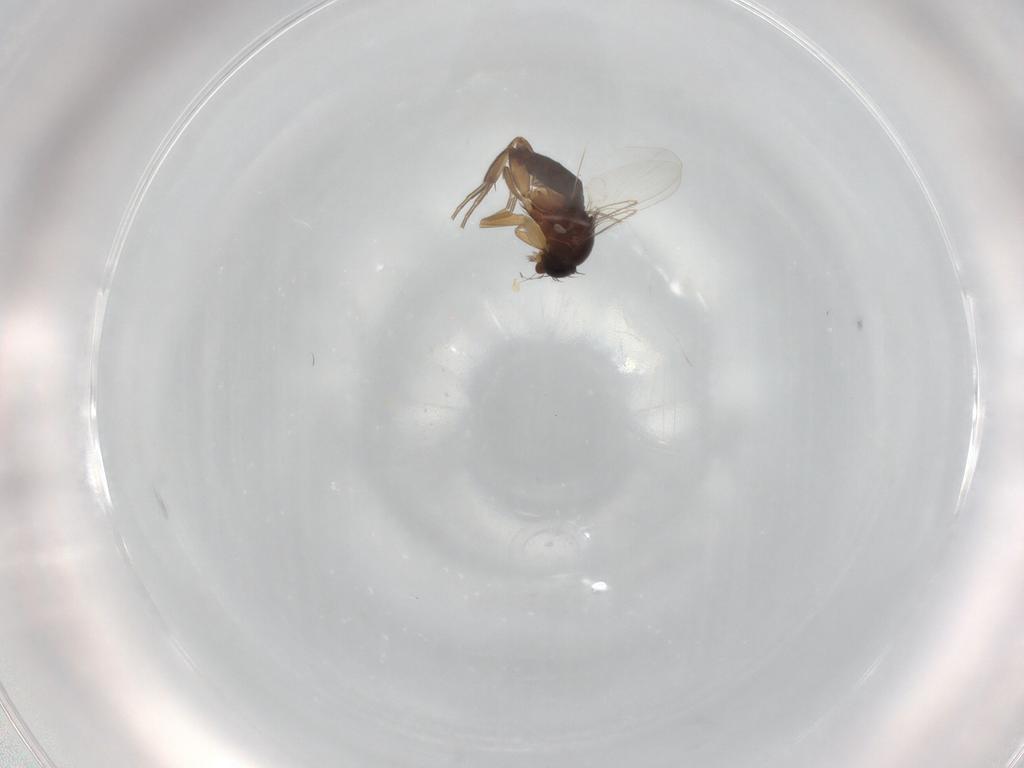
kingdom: Animalia
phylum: Arthropoda
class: Insecta
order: Diptera
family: Phoridae
